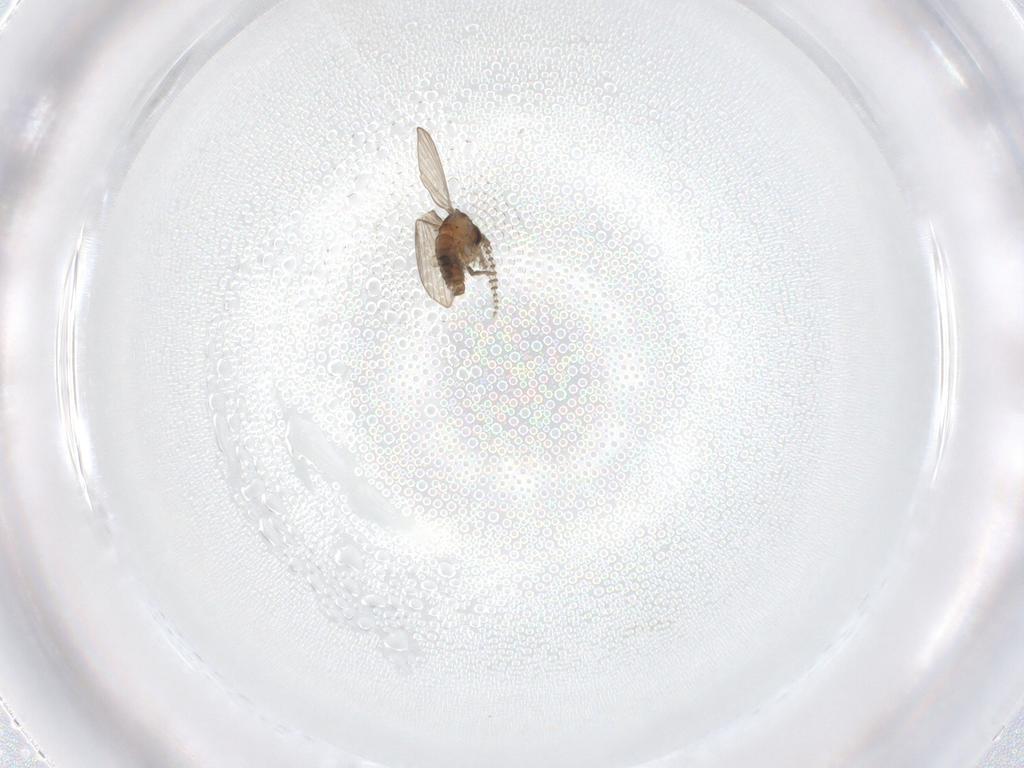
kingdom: Animalia
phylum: Arthropoda
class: Insecta
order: Diptera
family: Psychodidae
